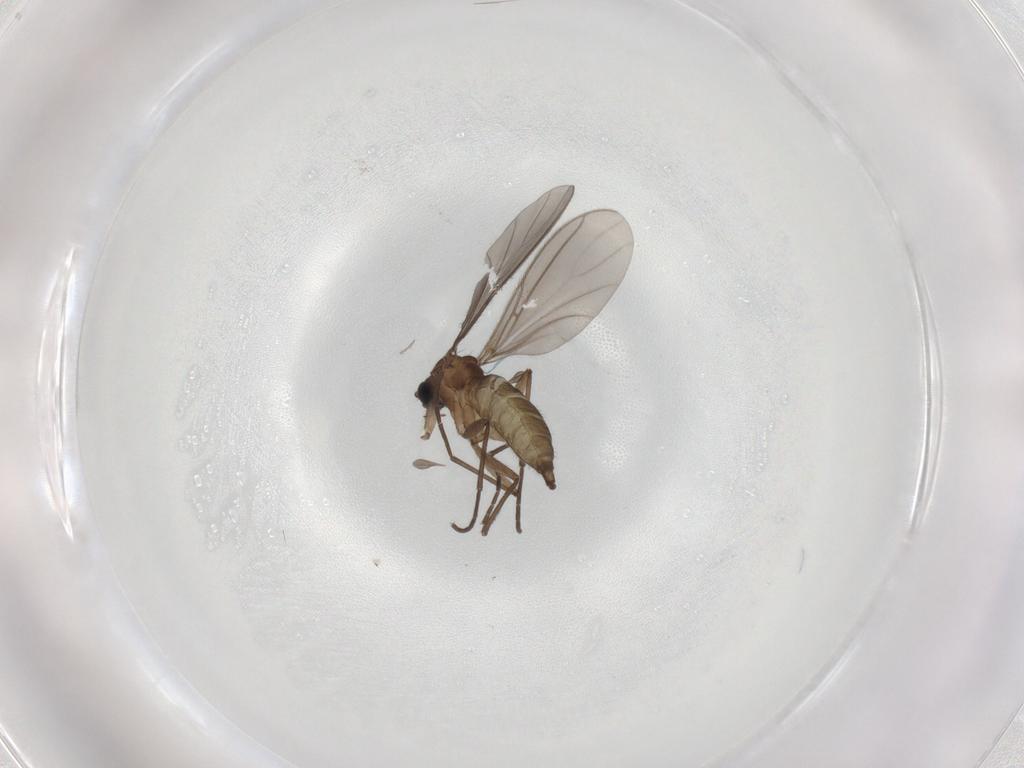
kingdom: Animalia
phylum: Arthropoda
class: Insecta
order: Diptera
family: Sciaridae
